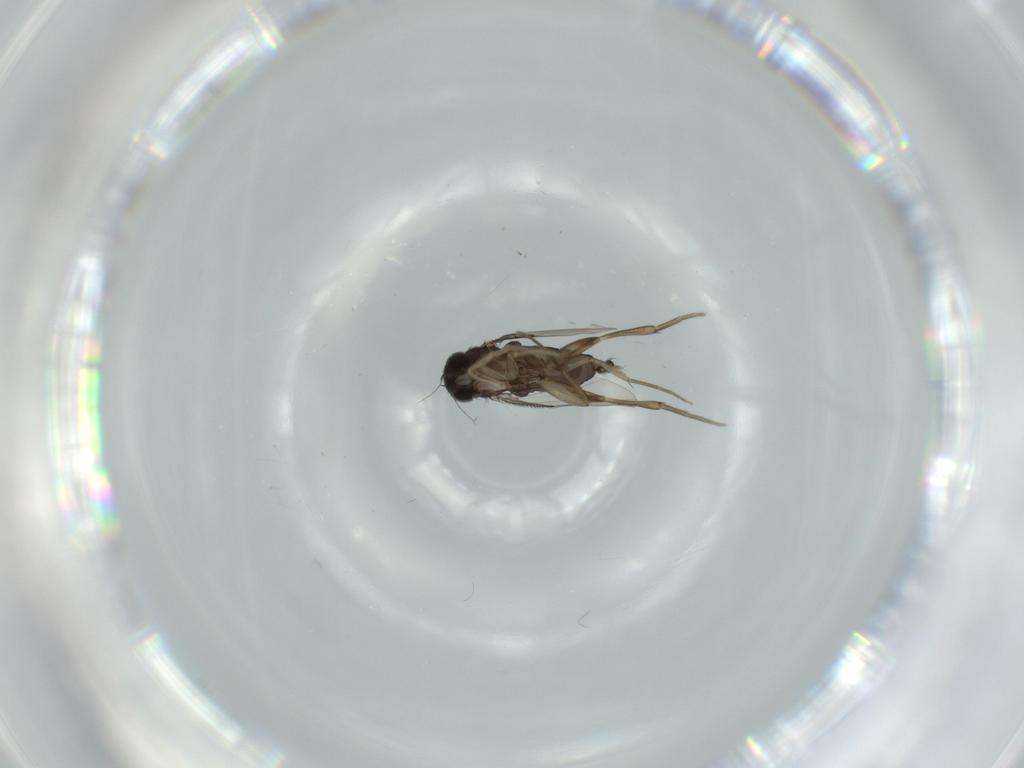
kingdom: Animalia
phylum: Arthropoda
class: Insecta
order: Diptera
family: Phoridae
